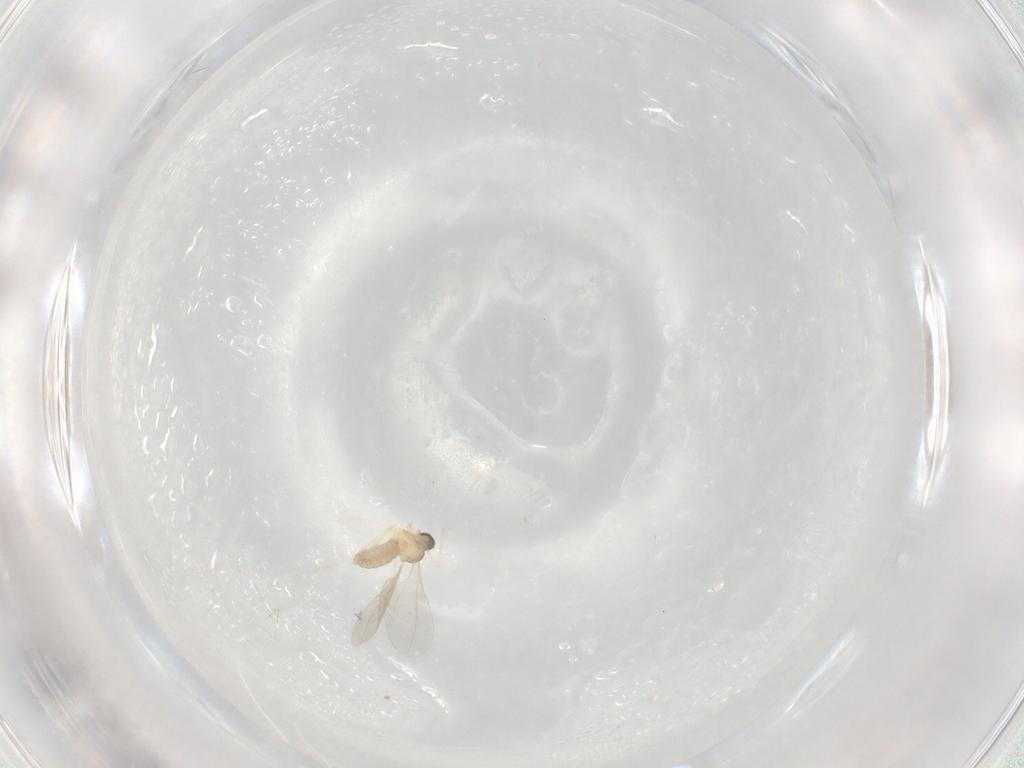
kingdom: Animalia
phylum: Arthropoda
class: Insecta
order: Diptera
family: Cecidomyiidae
